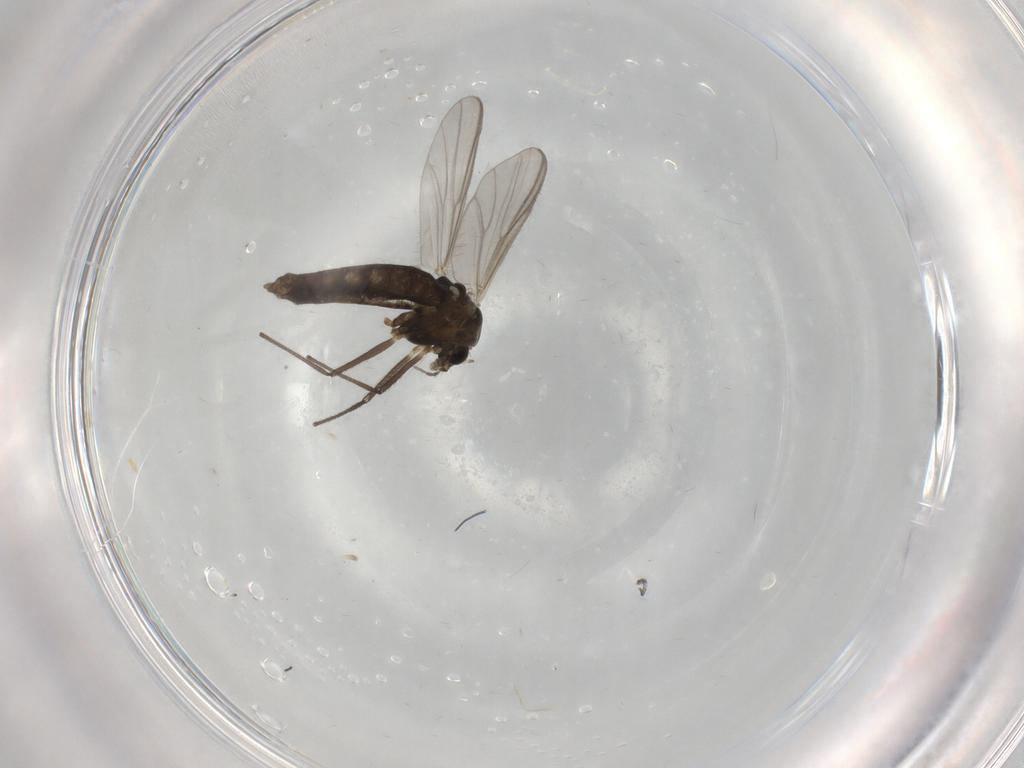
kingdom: Animalia
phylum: Arthropoda
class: Insecta
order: Diptera
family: Chironomidae
